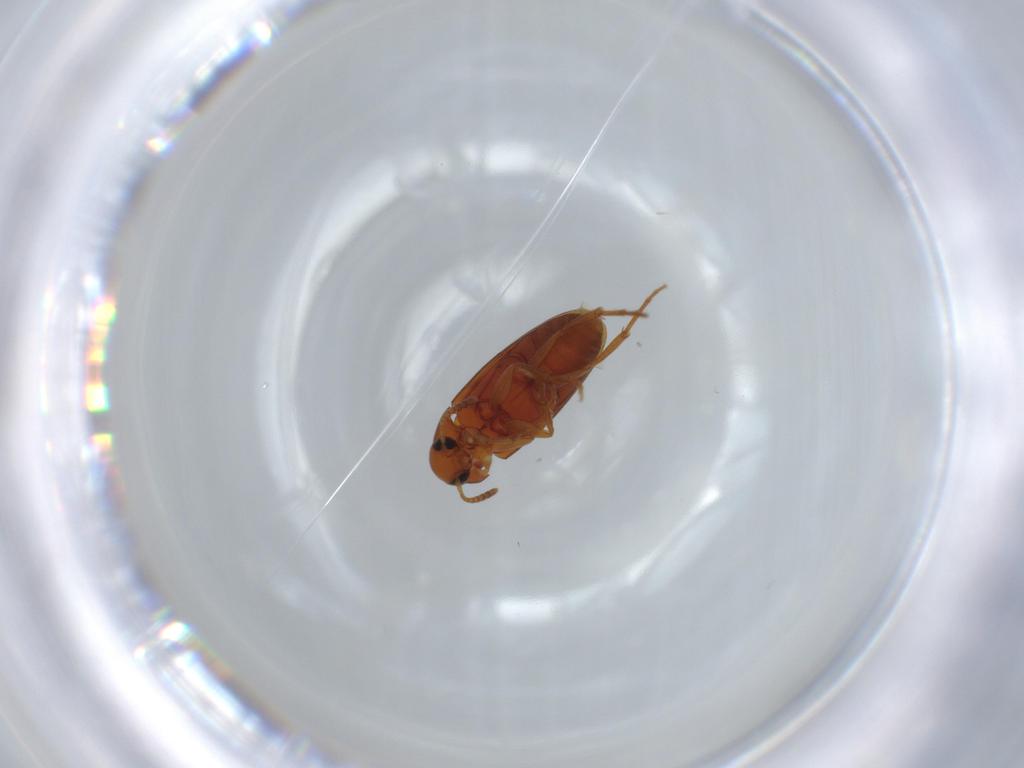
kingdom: Animalia
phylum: Arthropoda
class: Insecta
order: Coleoptera
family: Scraptiidae
